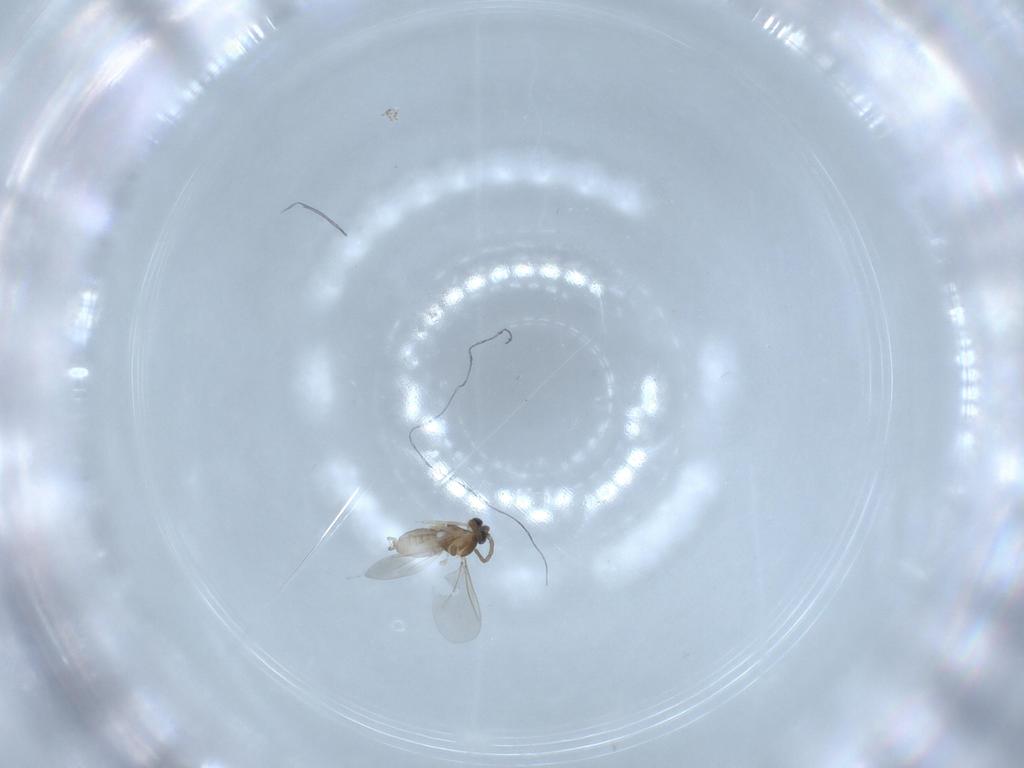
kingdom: Animalia
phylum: Arthropoda
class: Insecta
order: Diptera
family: Cecidomyiidae
